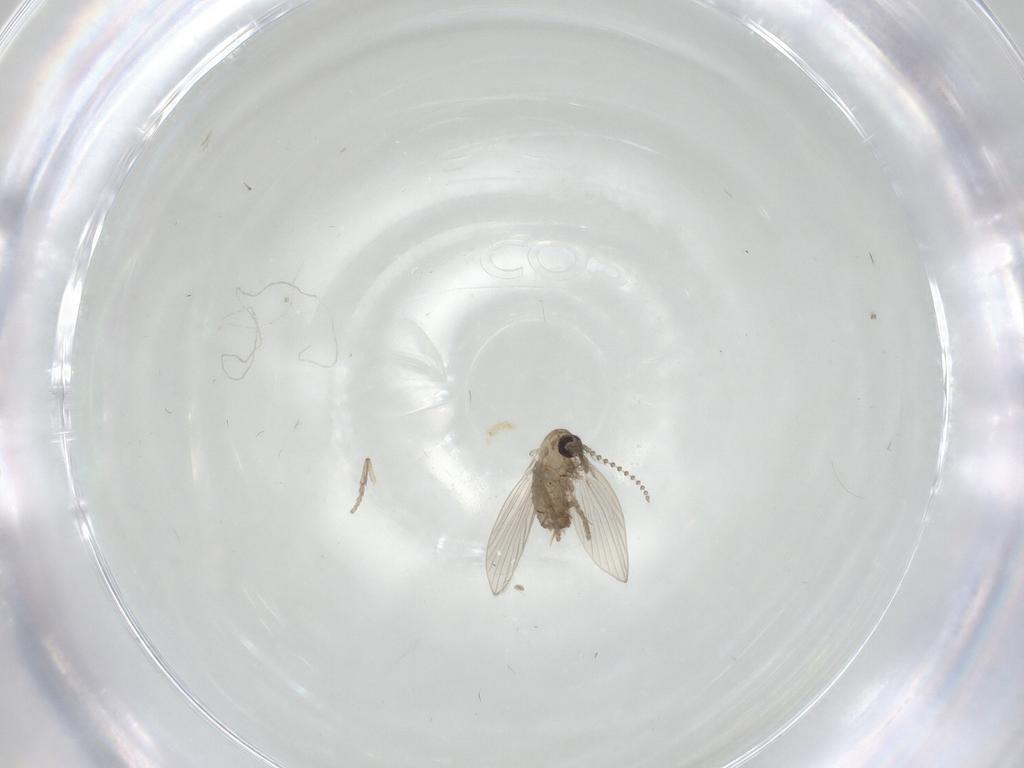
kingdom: Animalia
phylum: Arthropoda
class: Insecta
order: Diptera
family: Psychodidae
